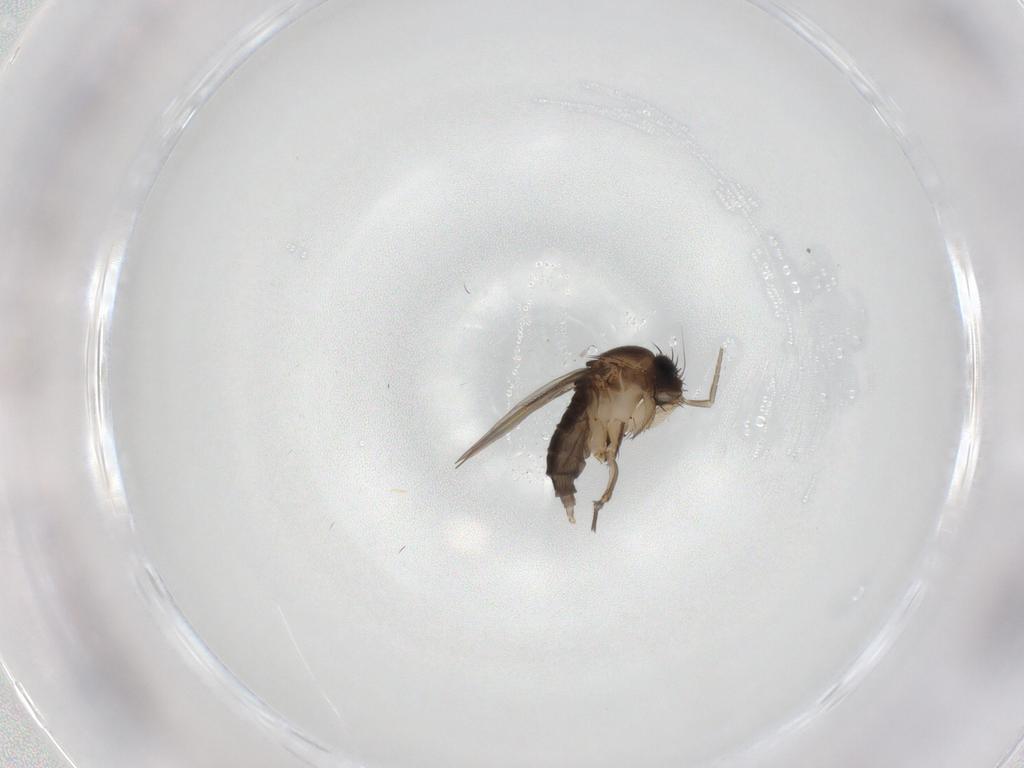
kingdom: Animalia
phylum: Arthropoda
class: Insecta
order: Diptera
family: Phoridae
